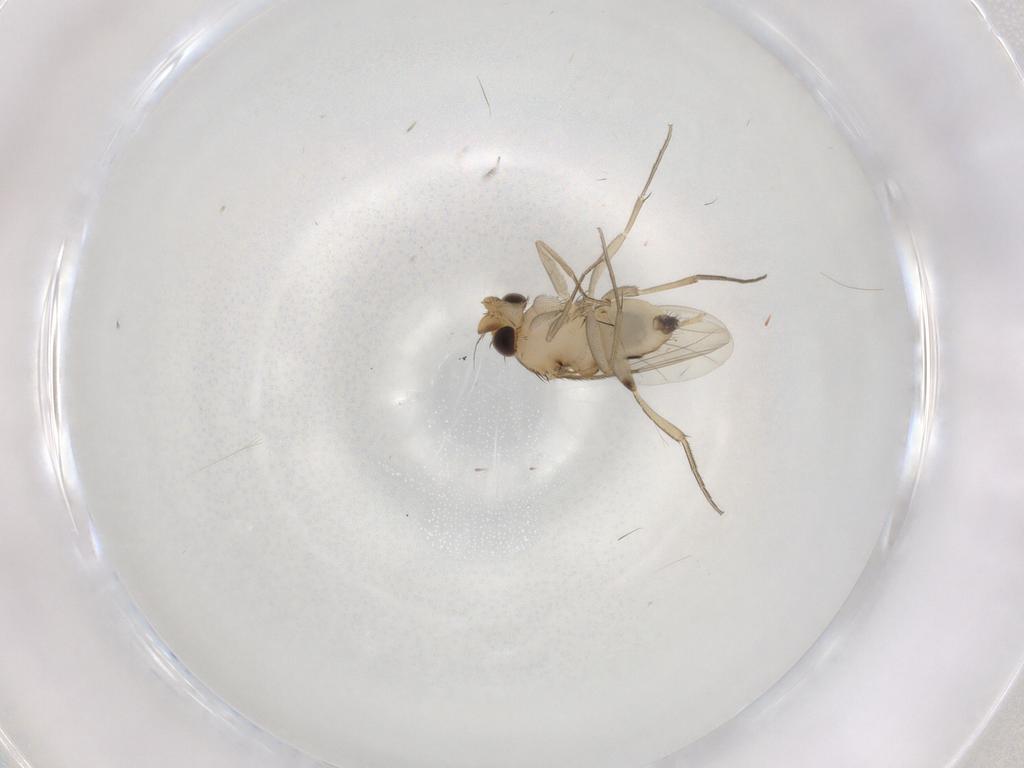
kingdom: Animalia
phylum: Arthropoda
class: Insecta
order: Diptera
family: Phoridae
